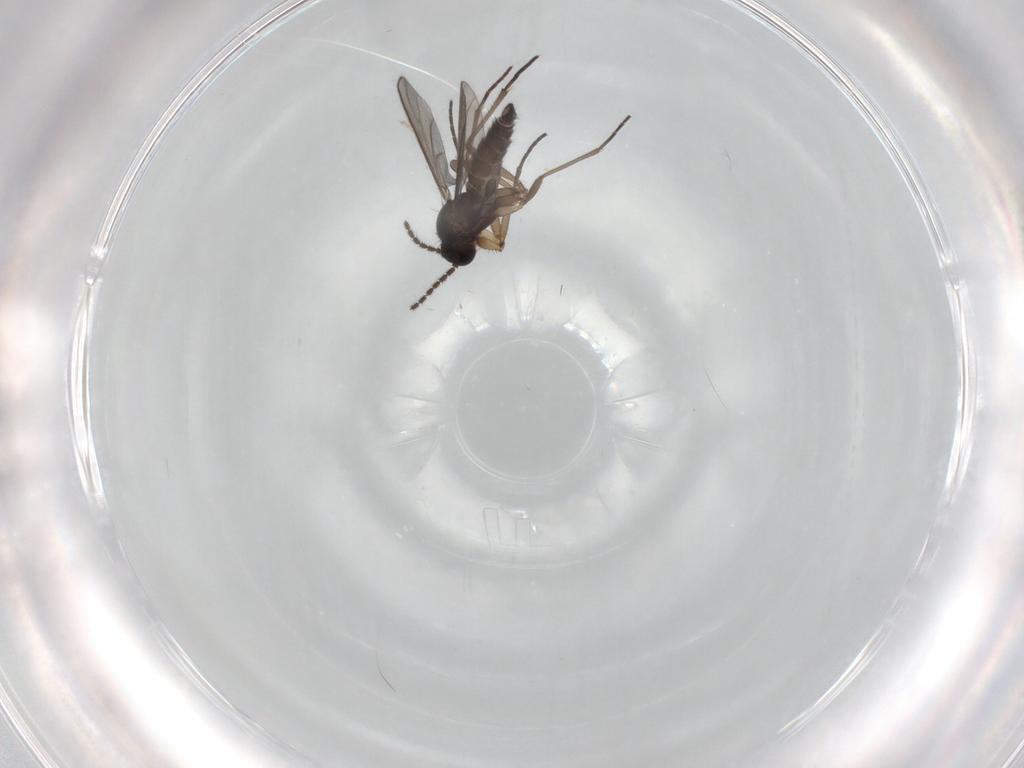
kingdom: Animalia
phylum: Arthropoda
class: Insecta
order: Diptera
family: Sciaridae
